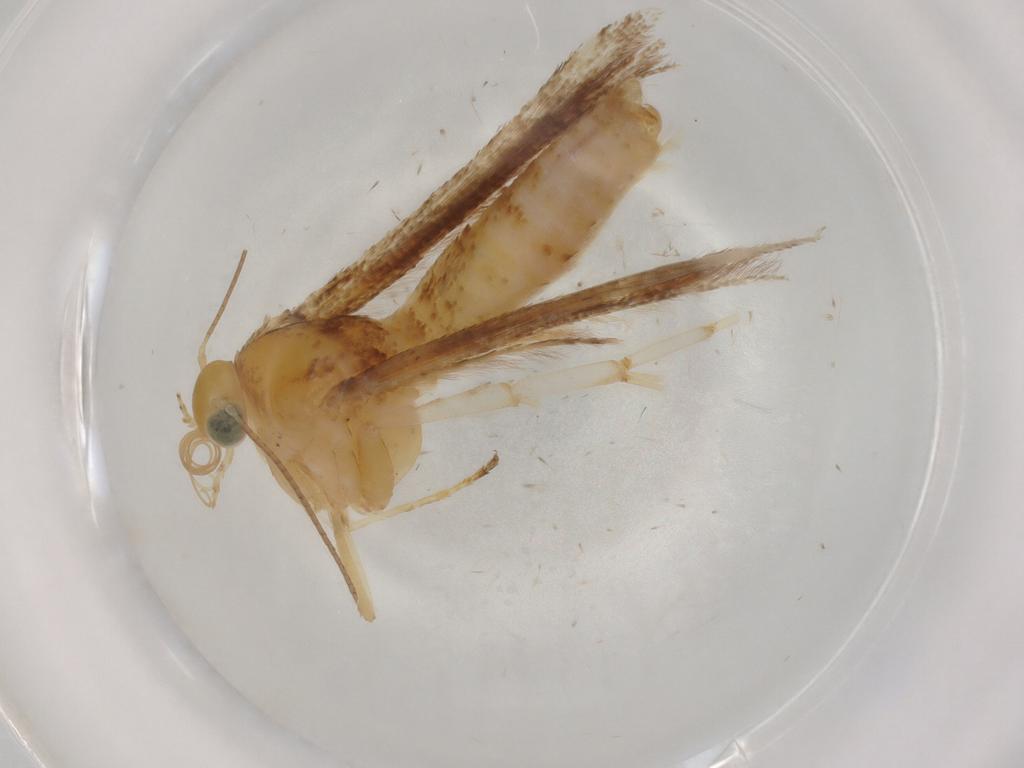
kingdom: Animalia
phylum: Arthropoda
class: Insecta
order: Lepidoptera
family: Pterophoridae
